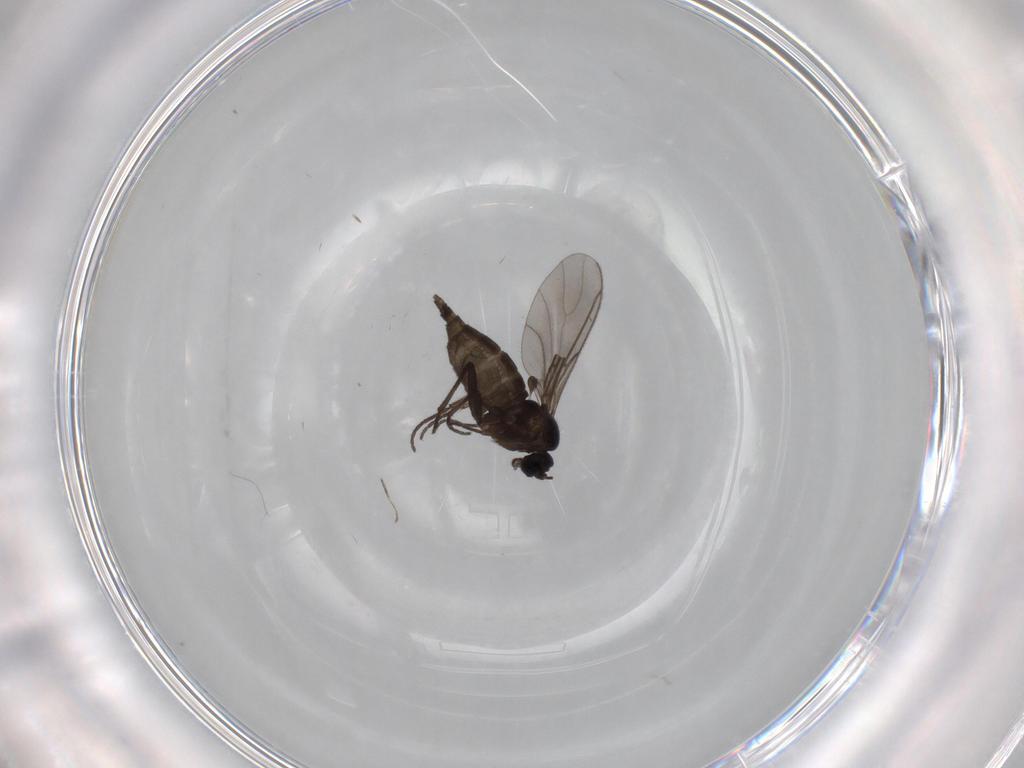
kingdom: Animalia
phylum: Arthropoda
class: Insecta
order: Diptera
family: Sciaridae
